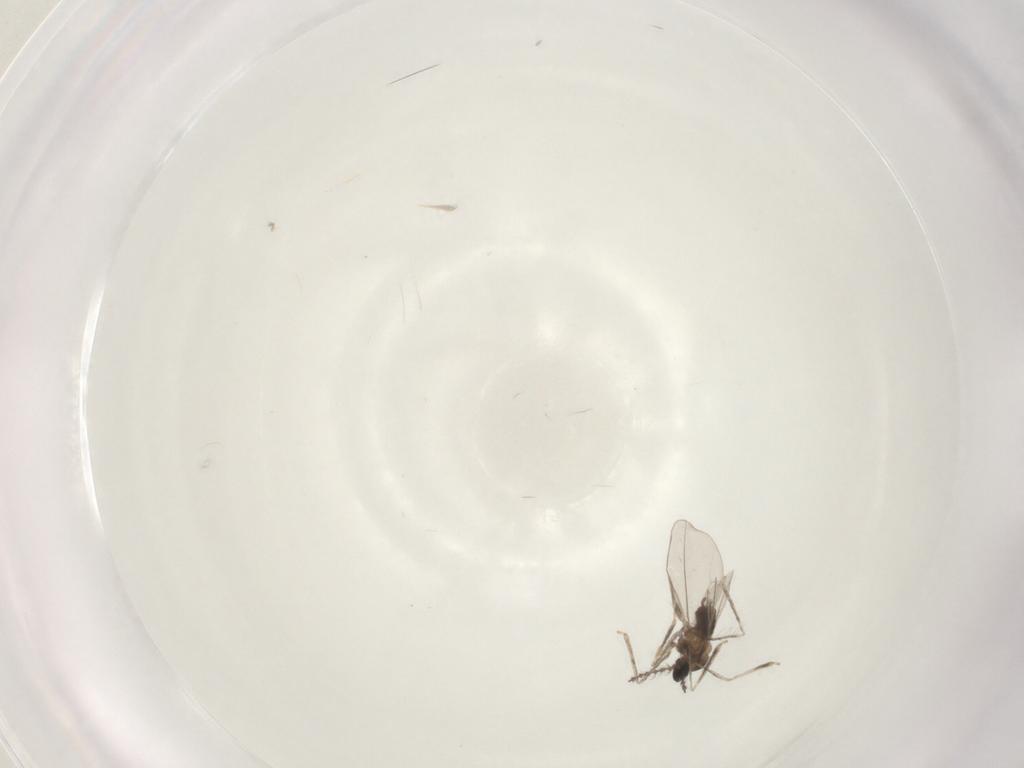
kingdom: Animalia
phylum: Arthropoda
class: Insecta
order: Diptera
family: Cecidomyiidae
